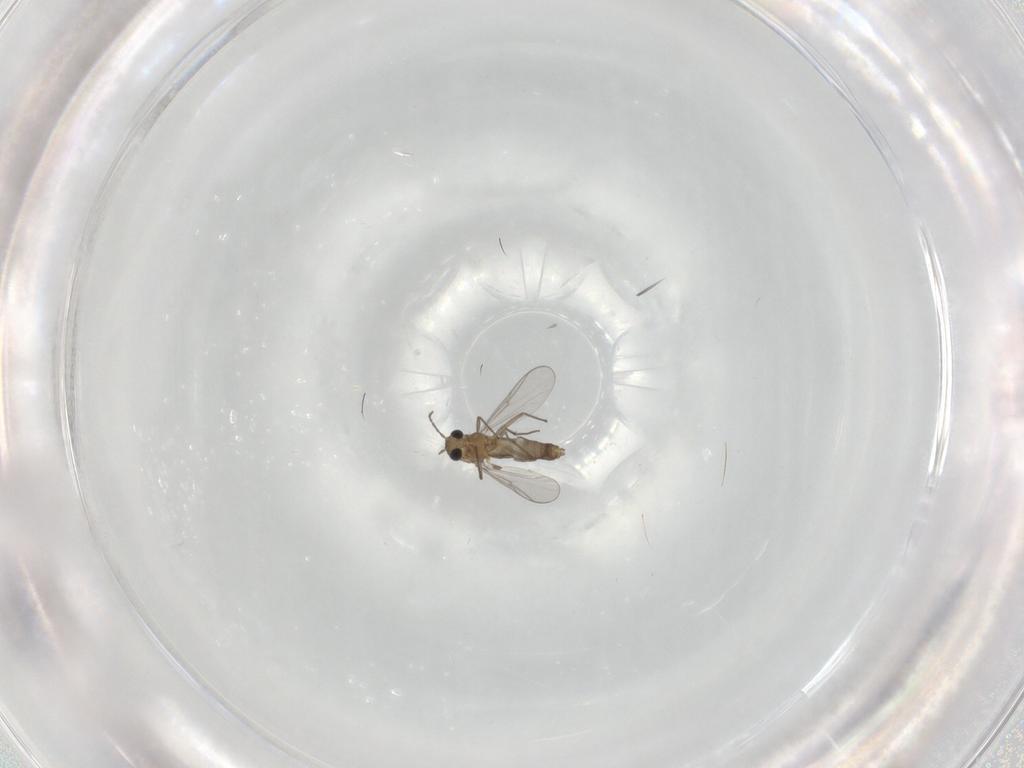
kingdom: Animalia
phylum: Arthropoda
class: Insecta
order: Diptera
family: Chironomidae
